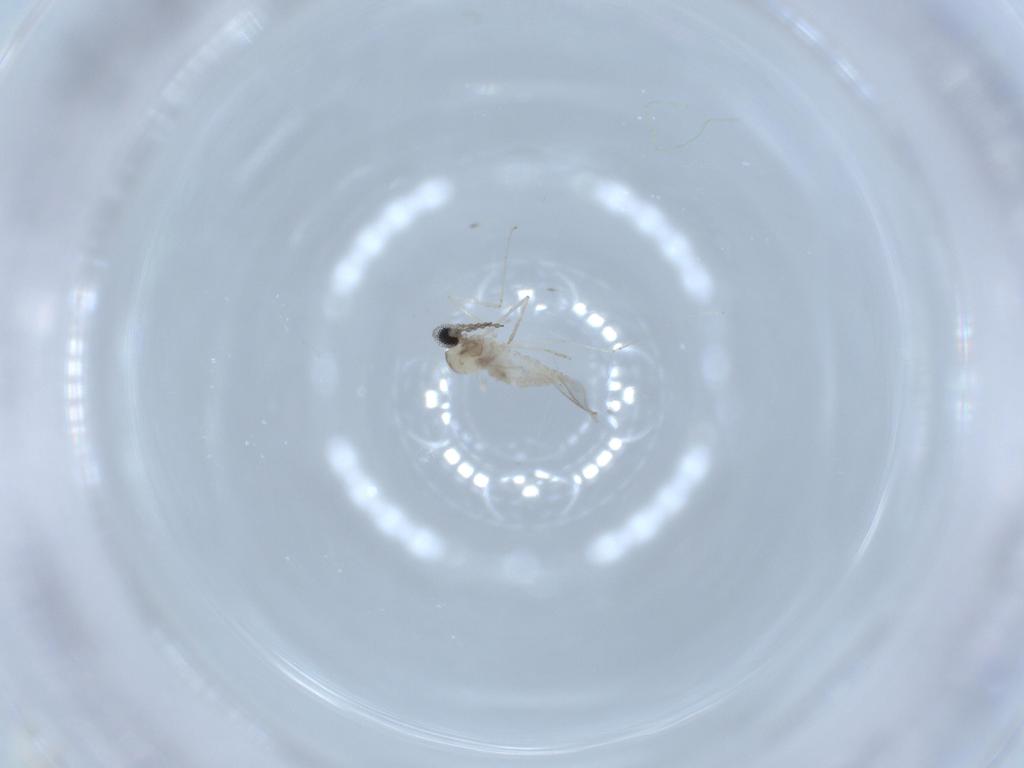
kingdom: Animalia
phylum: Arthropoda
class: Insecta
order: Diptera
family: Cecidomyiidae
